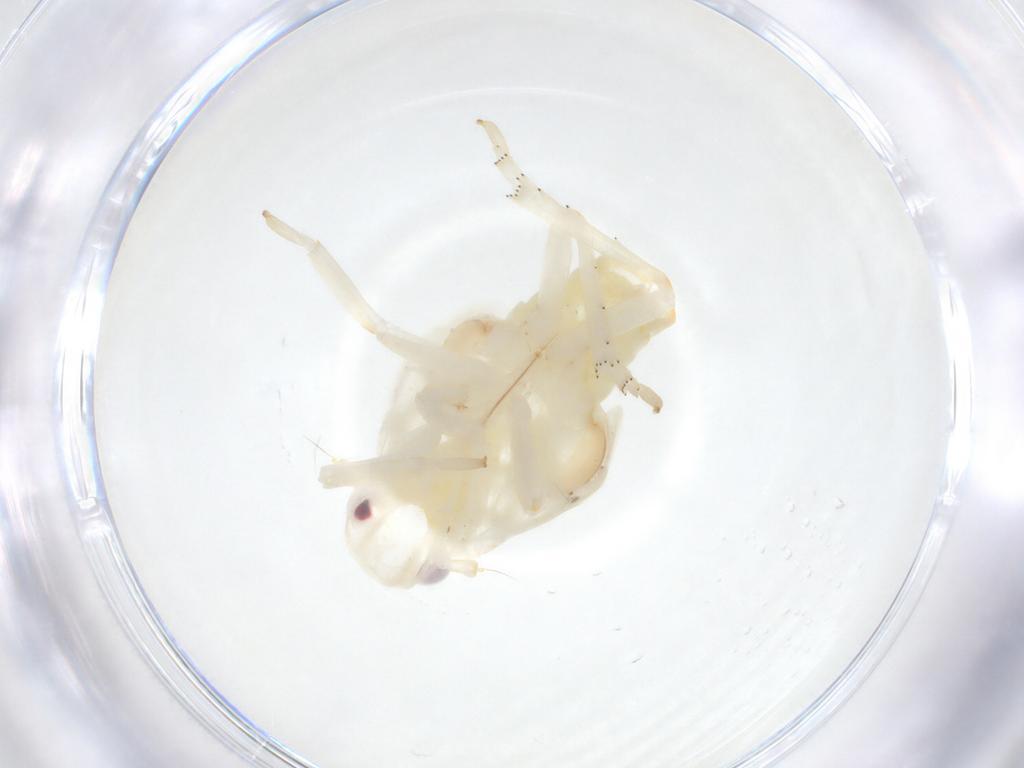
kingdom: Animalia
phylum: Arthropoda
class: Insecta
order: Hemiptera
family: Flatidae
